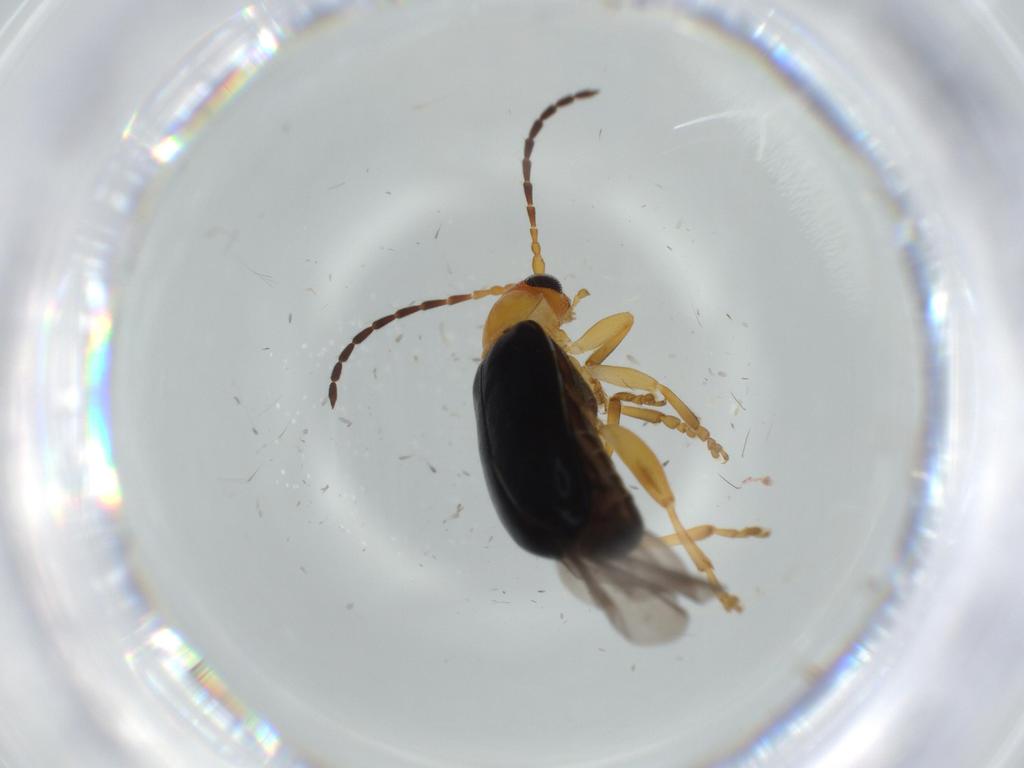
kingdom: Animalia
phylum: Arthropoda
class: Insecta
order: Coleoptera
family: Chrysomelidae
